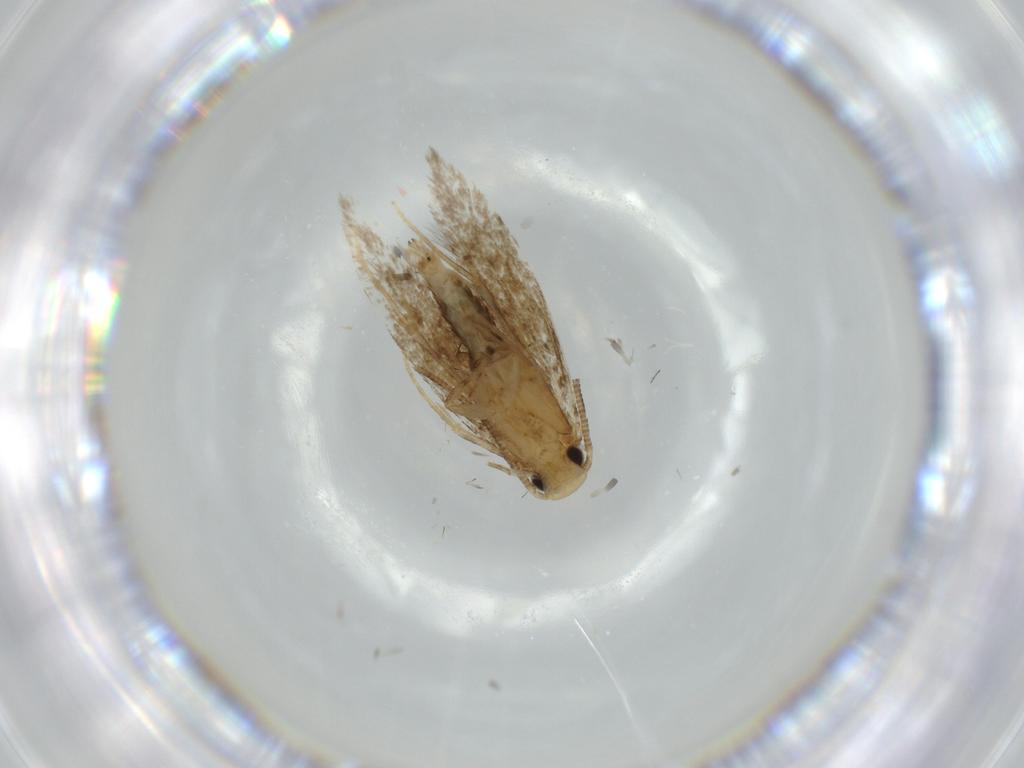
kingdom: Animalia
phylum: Arthropoda
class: Insecta
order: Lepidoptera
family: Tineidae
